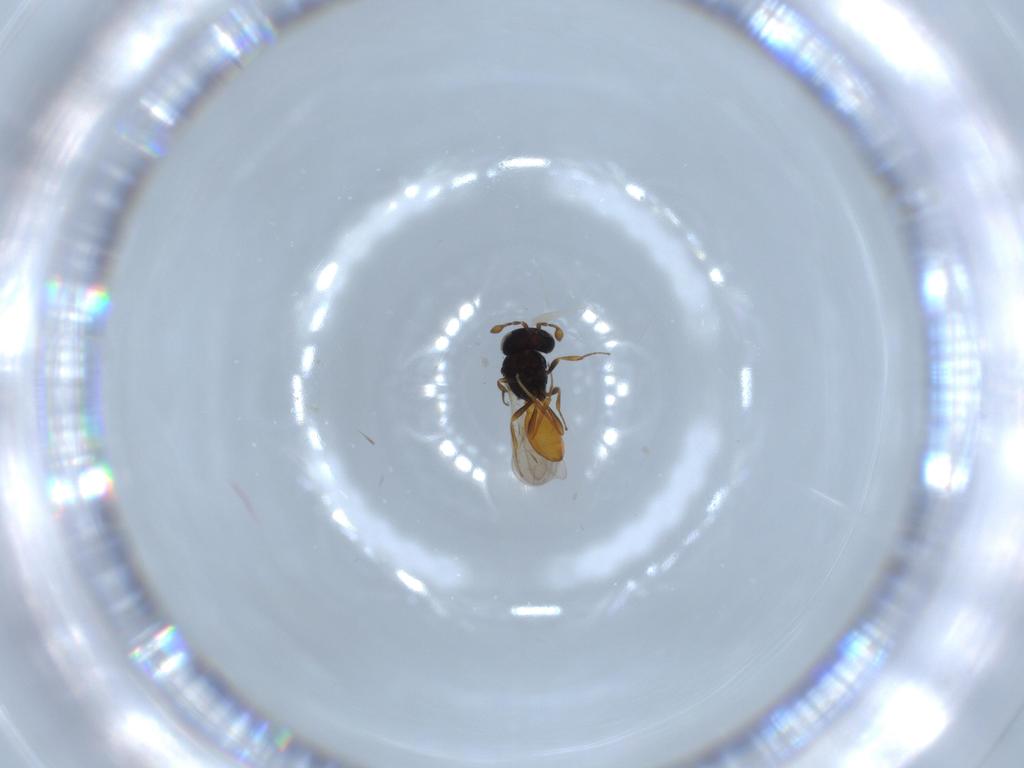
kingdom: Animalia
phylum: Arthropoda
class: Insecta
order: Hymenoptera
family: Scelionidae
